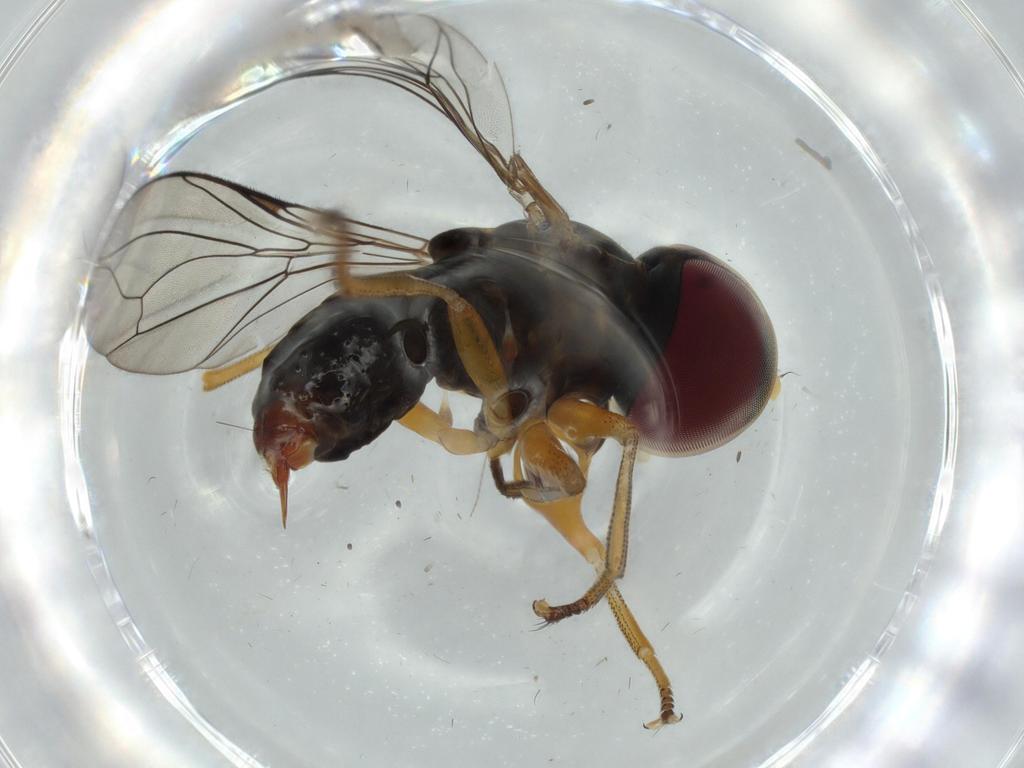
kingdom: Animalia
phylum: Arthropoda
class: Insecta
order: Diptera
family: Pipunculidae
